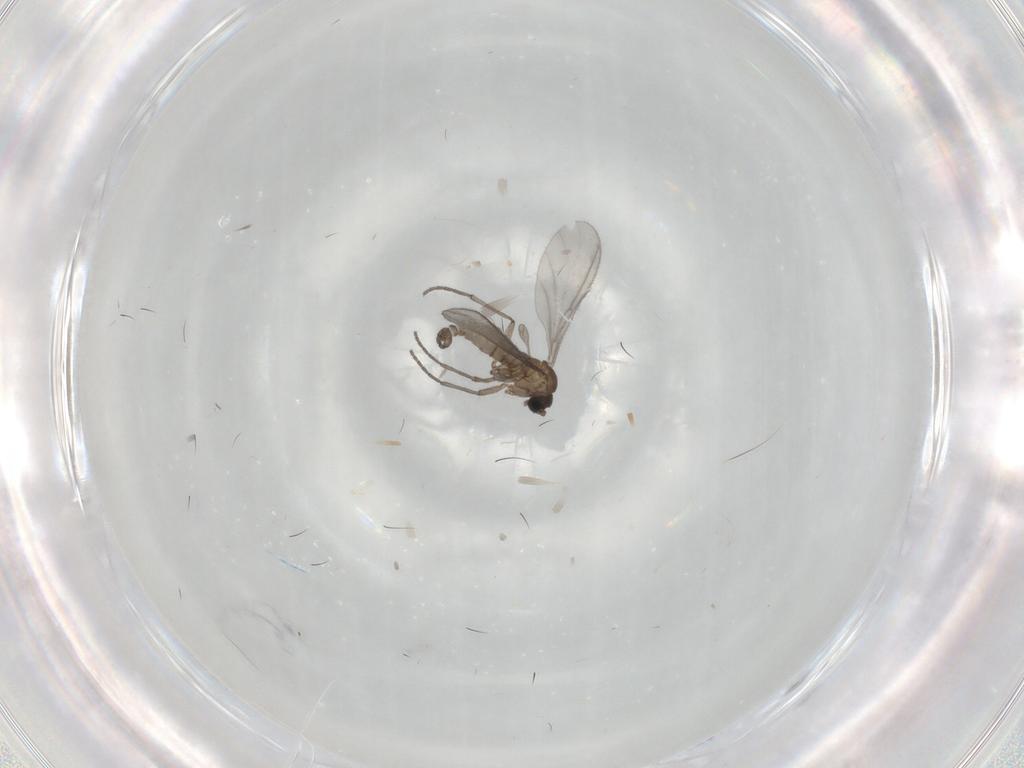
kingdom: Animalia
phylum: Arthropoda
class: Insecta
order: Diptera
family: Sciaridae
